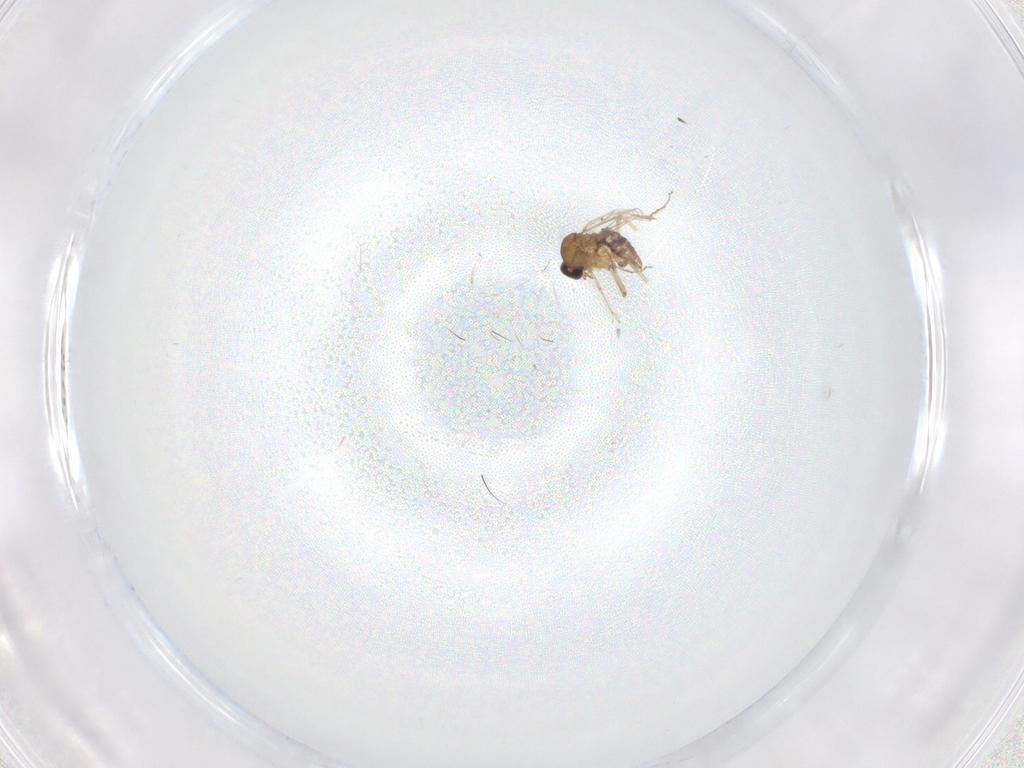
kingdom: Animalia
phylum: Arthropoda
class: Insecta
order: Diptera
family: Ceratopogonidae
